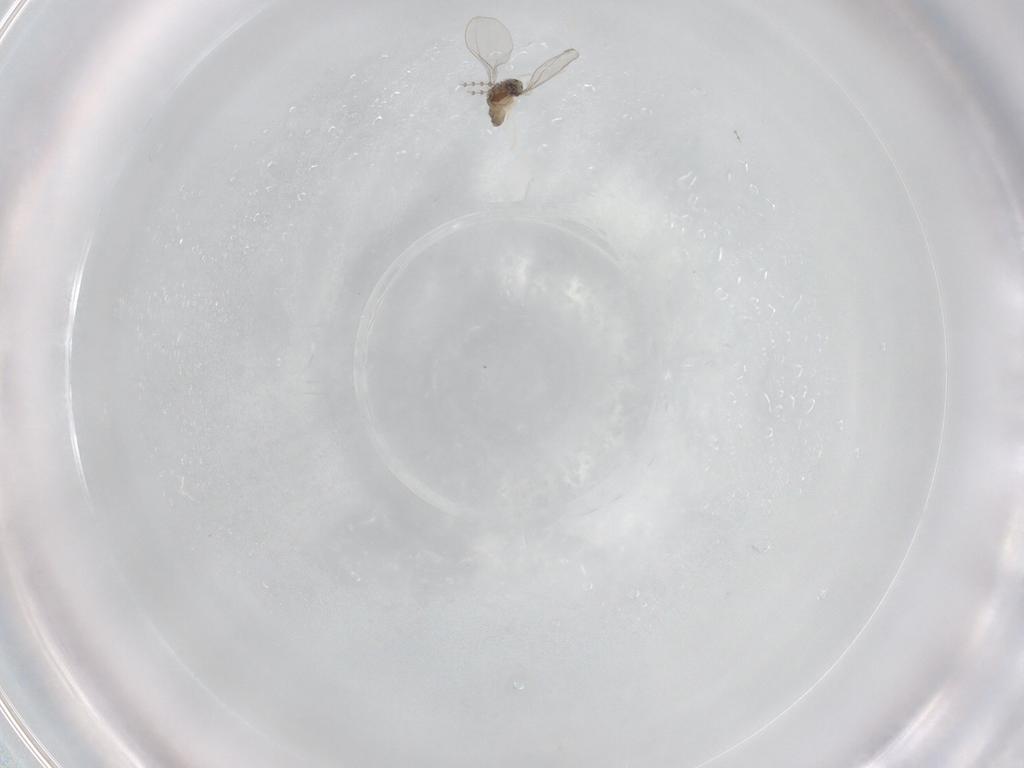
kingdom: Animalia
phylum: Arthropoda
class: Insecta
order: Diptera
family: Cecidomyiidae
